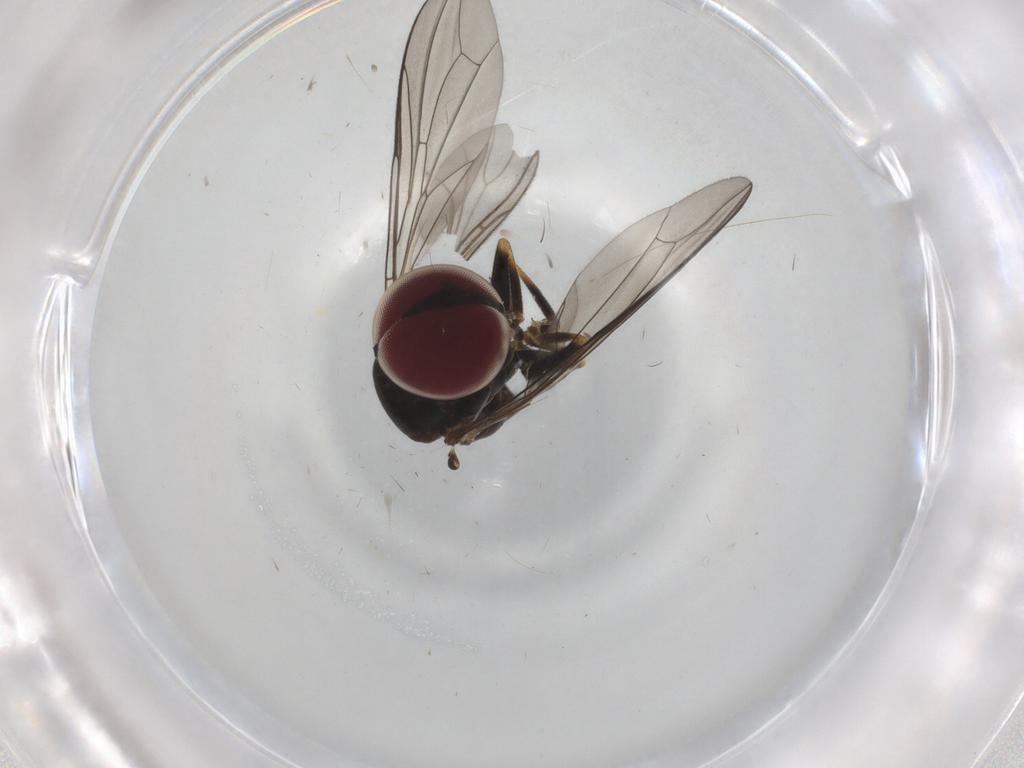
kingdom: Animalia
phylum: Arthropoda
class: Insecta
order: Diptera
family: Pipunculidae
